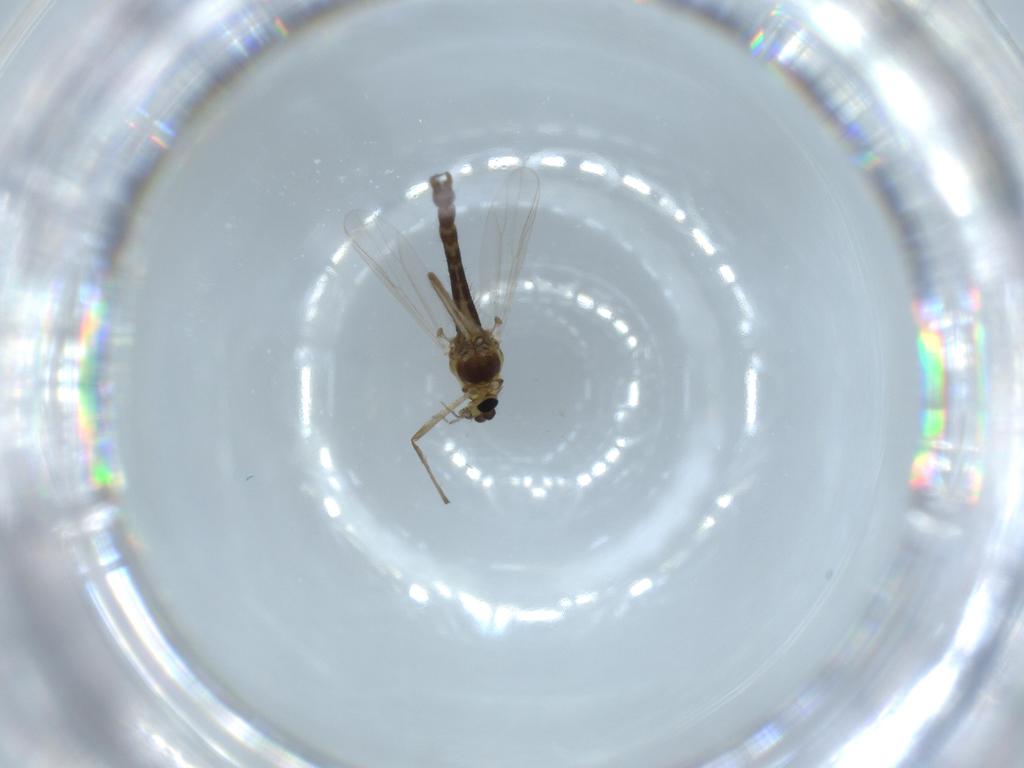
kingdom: Animalia
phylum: Arthropoda
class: Insecta
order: Diptera
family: Chironomidae
